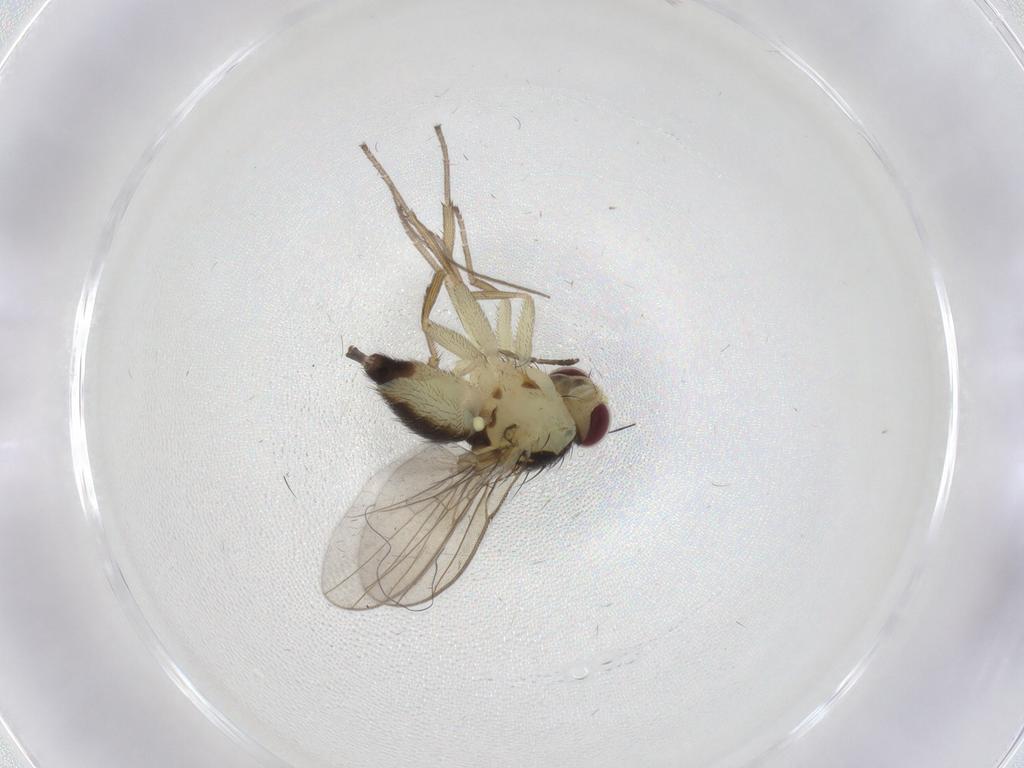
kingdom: Animalia
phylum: Arthropoda
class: Insecta
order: Diptera
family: Agromyzidae
